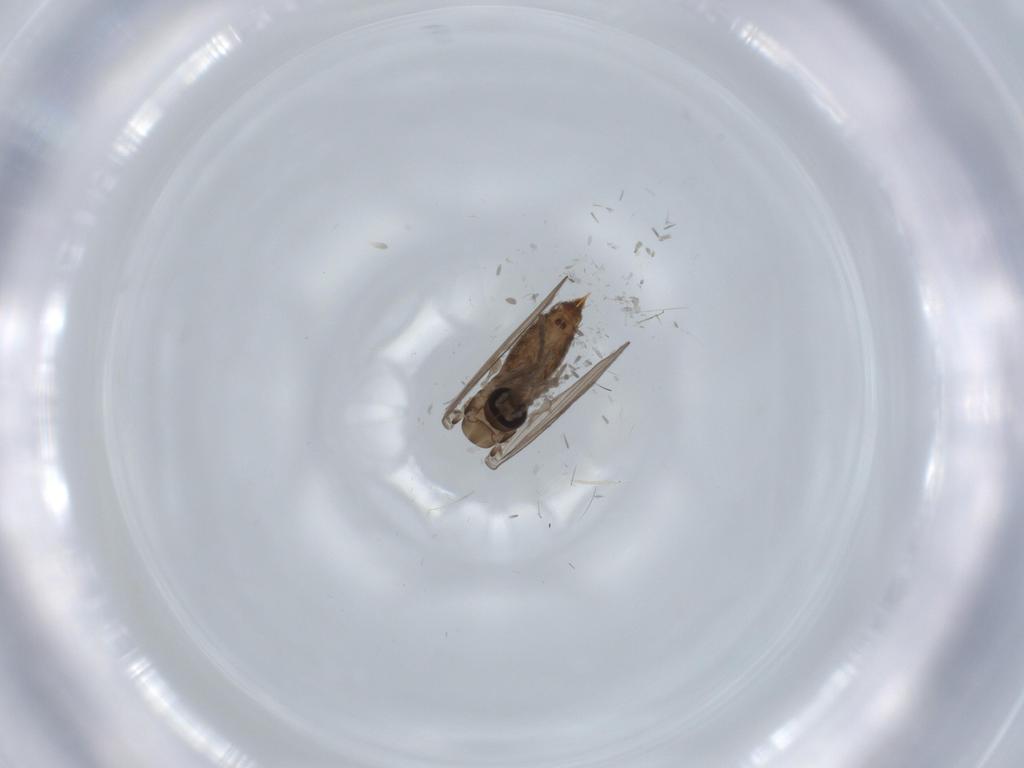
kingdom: Animalia
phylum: Arthropoda
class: Insecta
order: Diptera
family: Psychodidae
